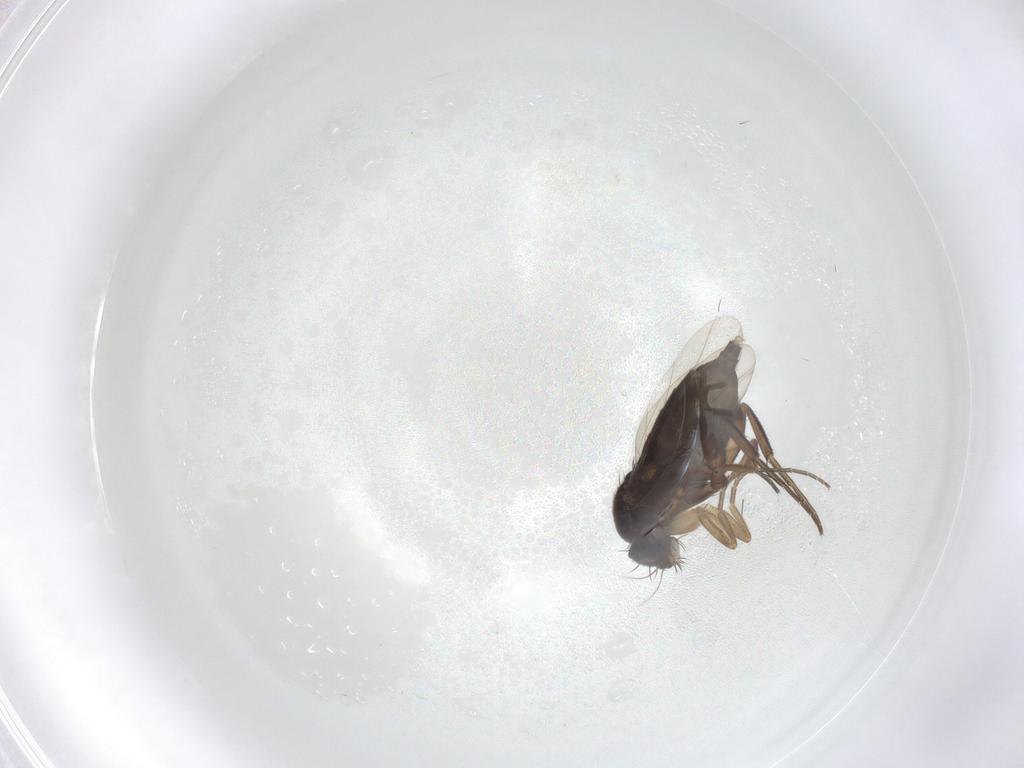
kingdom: Animalia
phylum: Arthropoda
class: Insecta
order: Diptera
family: Phoridae
